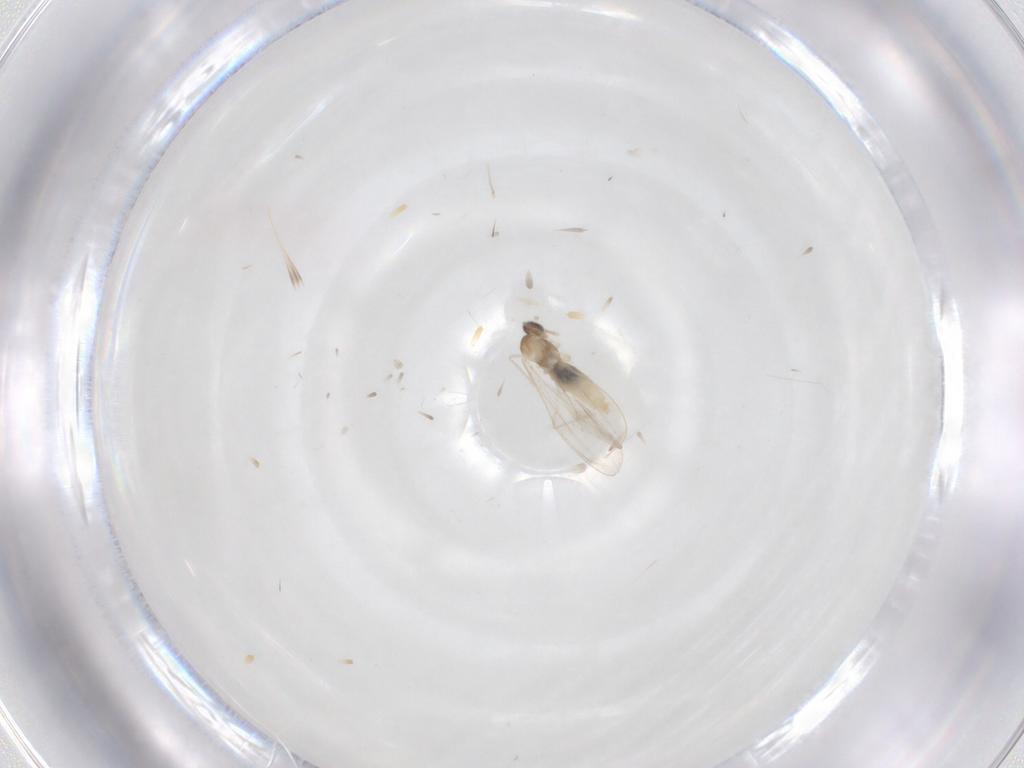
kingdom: Animalia
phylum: Arthropoda
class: Insecta
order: Diptera
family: Cecidomyiidae
